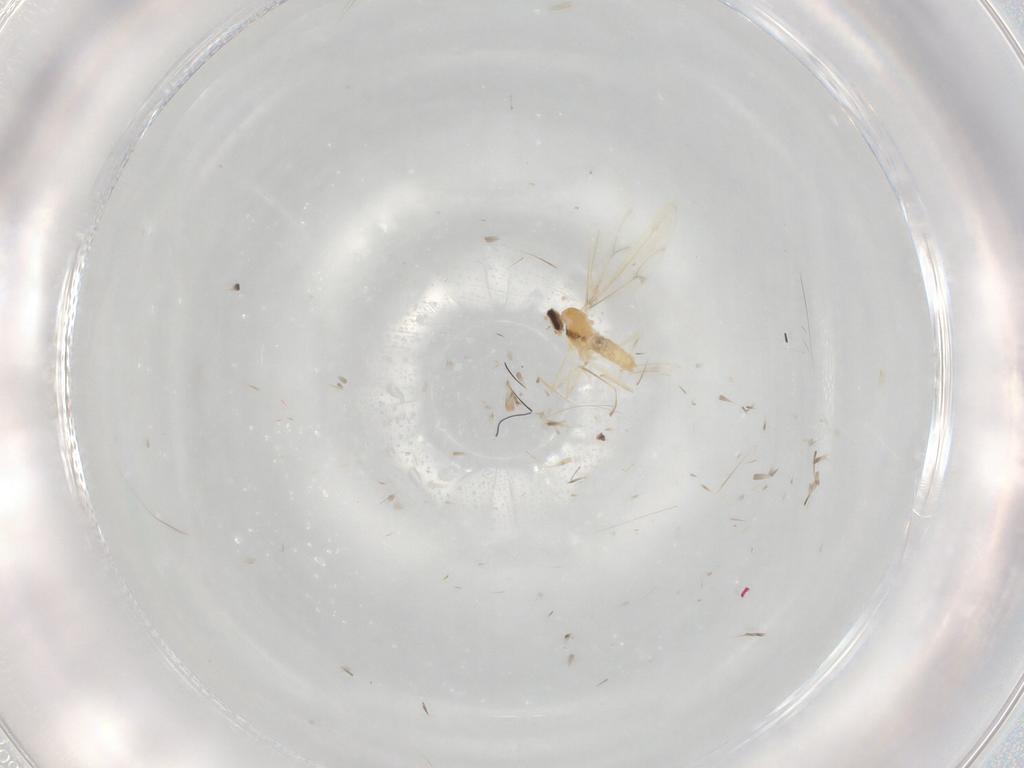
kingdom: Animalia
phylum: Arthropoda
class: Insecta
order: Diptera
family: Cecidomyiidae
